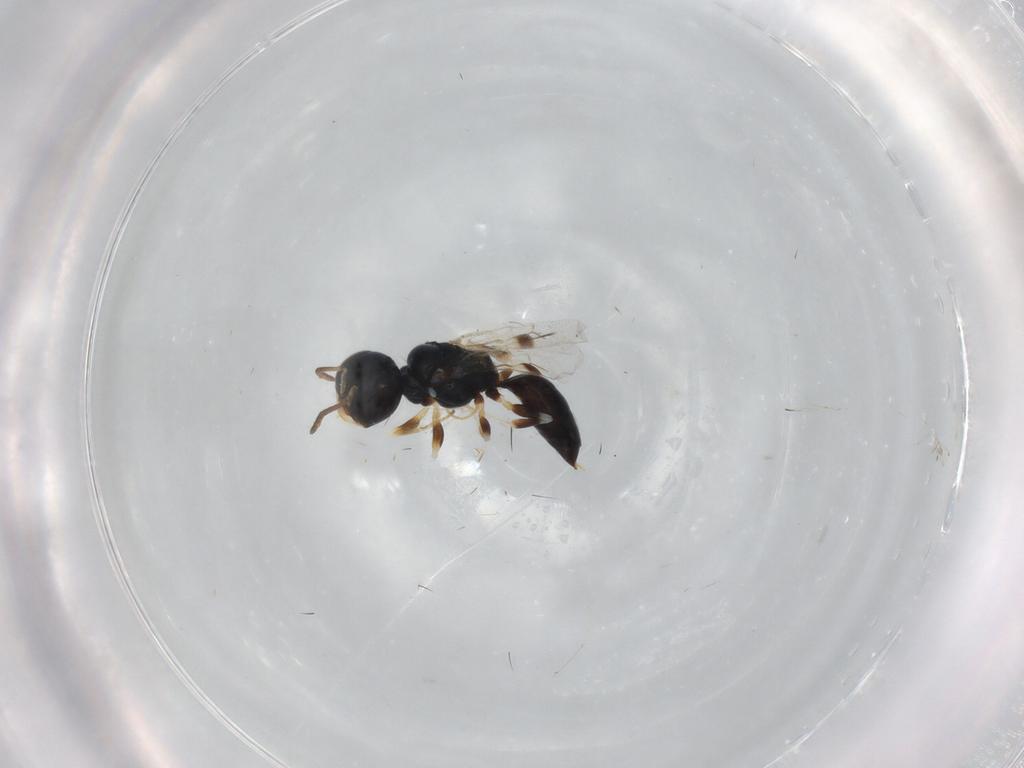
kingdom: Animalia
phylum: Arthropoda
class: Insecta
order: Hymenoptera
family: Pemphredonidae
